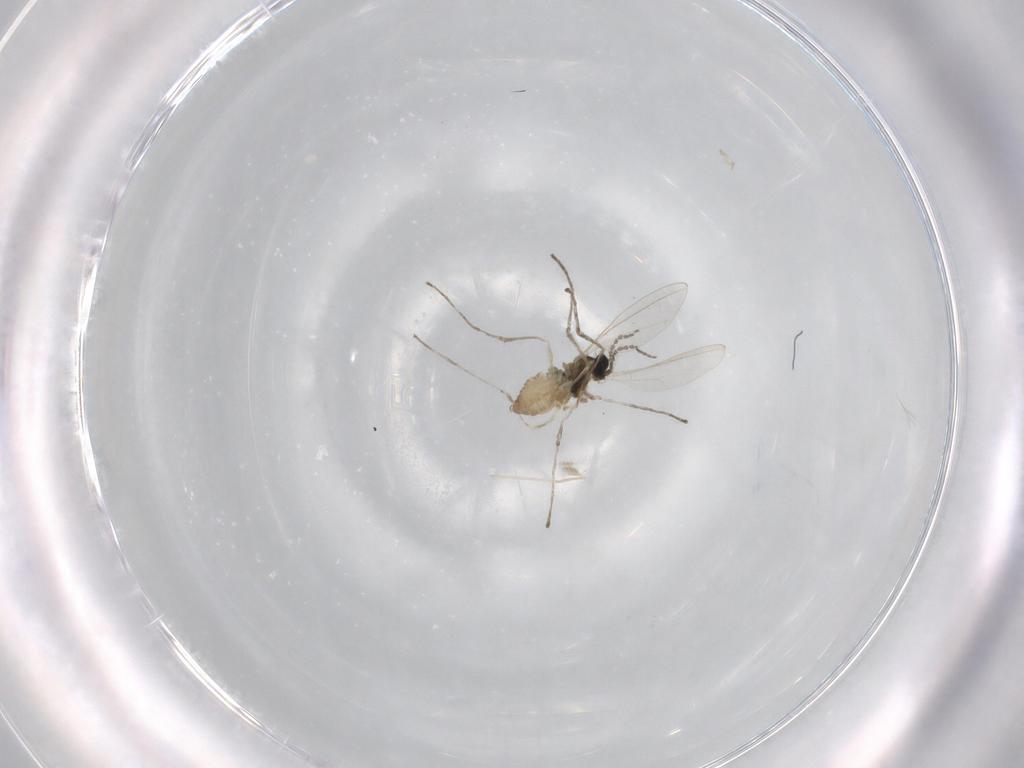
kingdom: Animalia
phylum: Arthropoda
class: Insecta
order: Diptera
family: Cecidomyiidae
